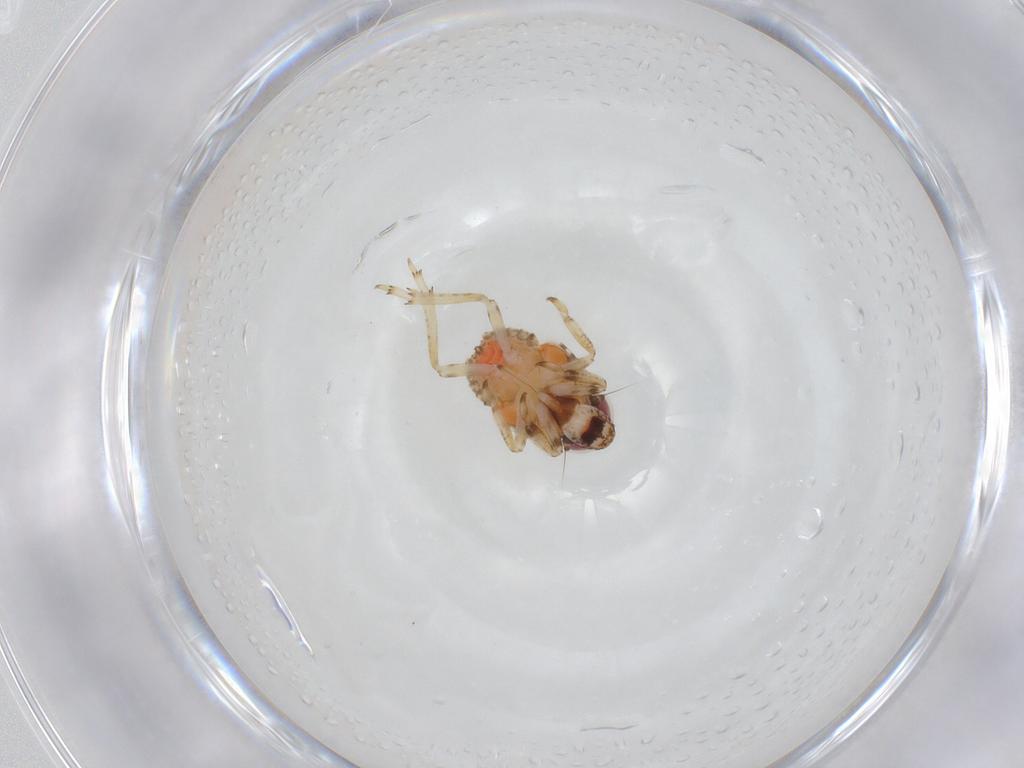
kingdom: Animalia
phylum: Arthropoda
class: Insecta
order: Hemiptera
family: Issidae
